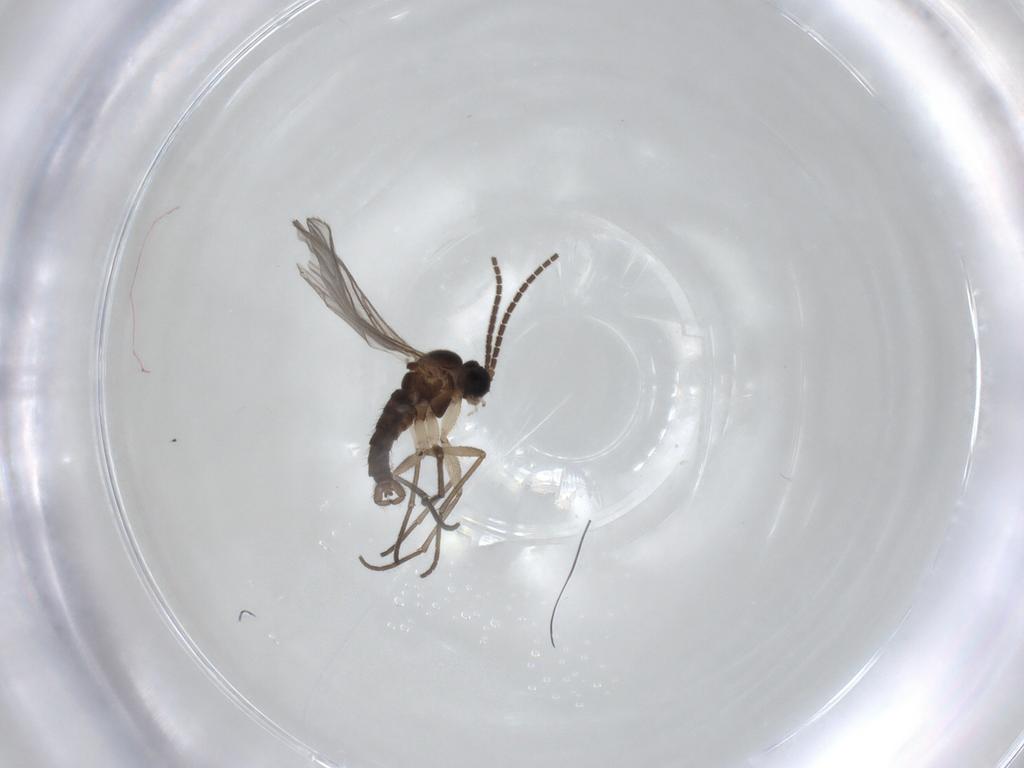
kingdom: Animalia
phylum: Arthropoda
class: Insecta
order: Diptera
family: Sciaridae
